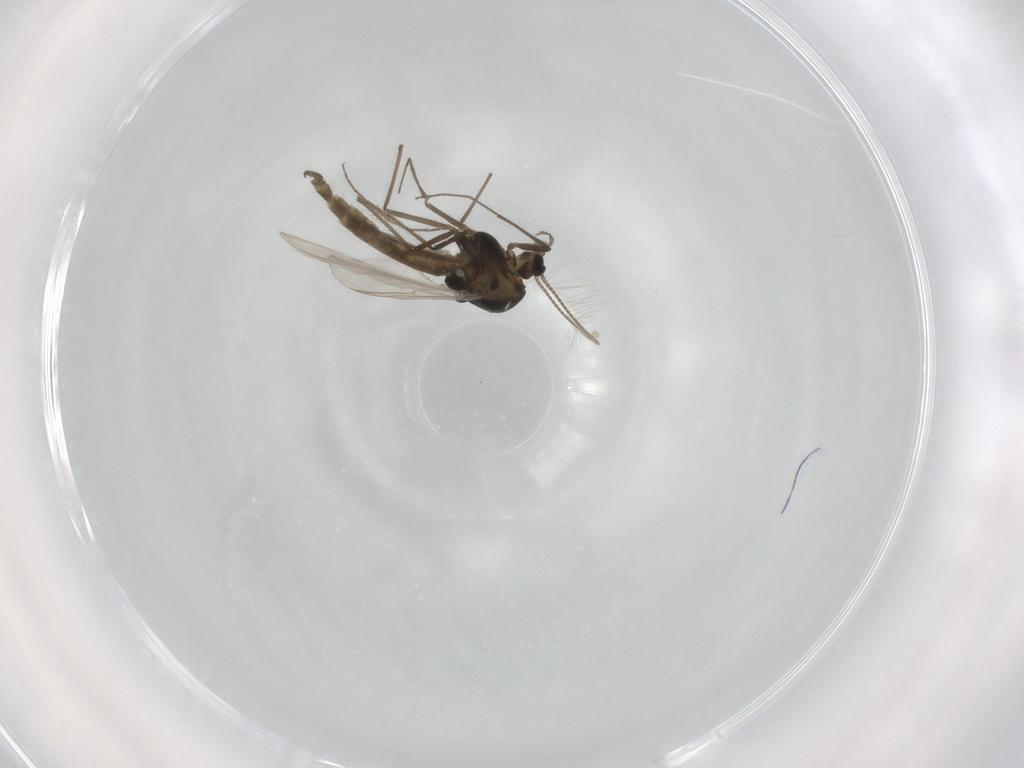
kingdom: Animalia
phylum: Arthropoda
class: Insecta
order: Diptera
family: Chironomidae
